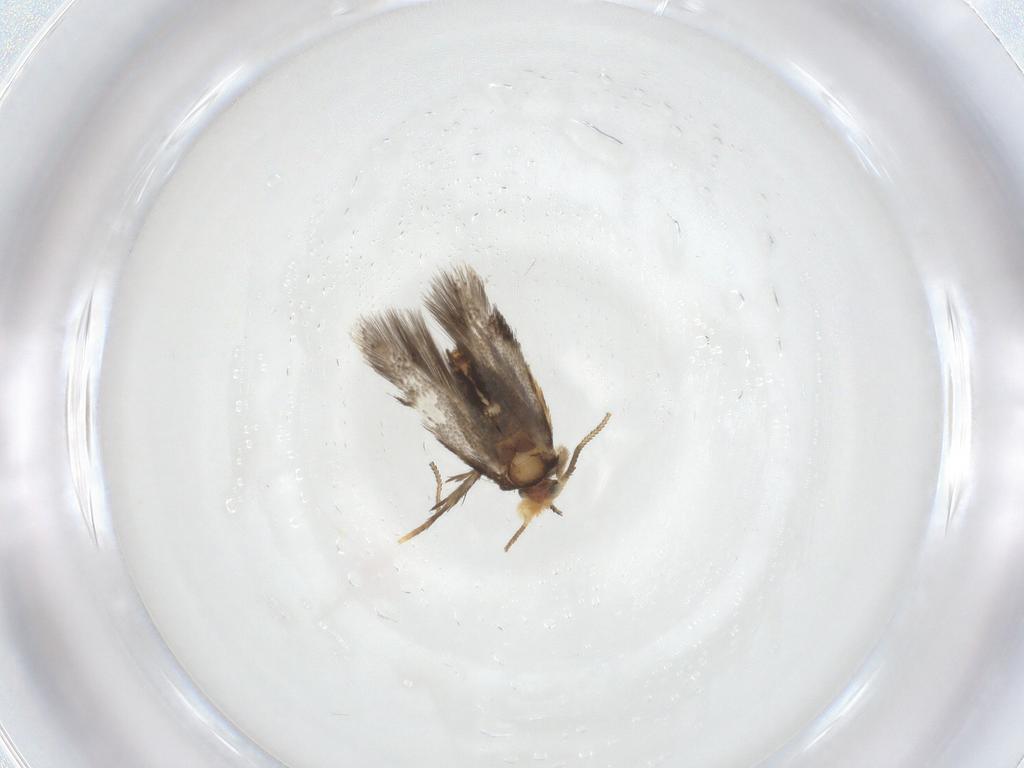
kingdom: Animalia
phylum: Arthropoda
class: Insecta
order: Lepidoptera
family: Nepticulidae
